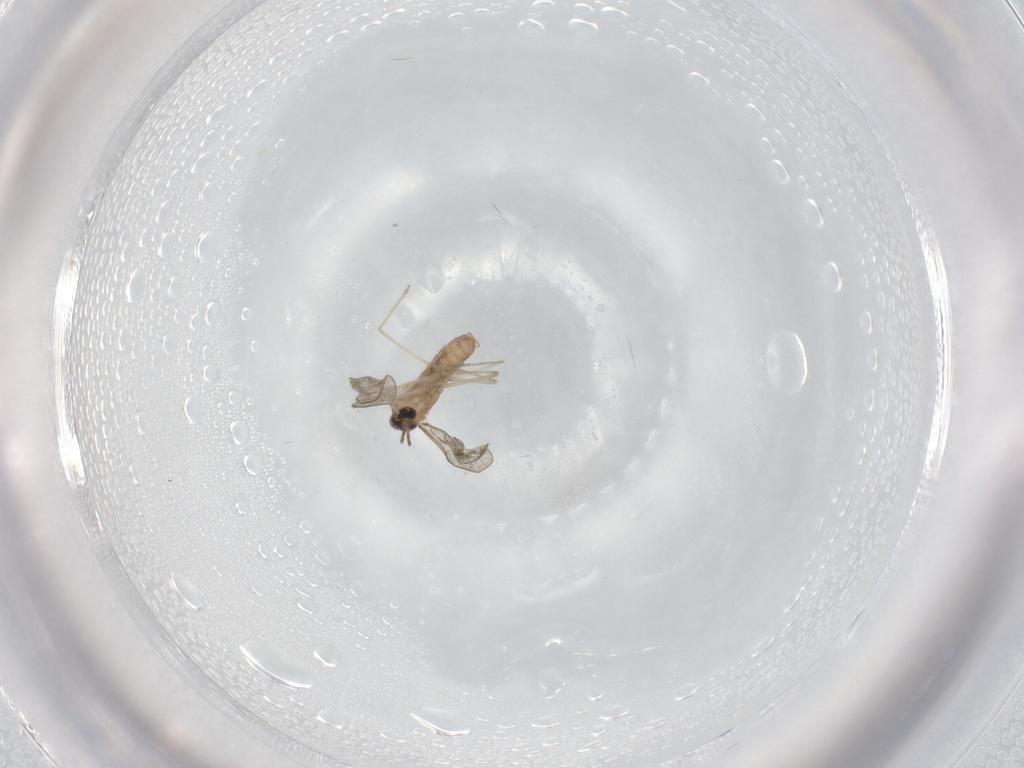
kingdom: Animalia
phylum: Arthropoda
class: Insecta
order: Diptera
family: Cecidomyiidae
